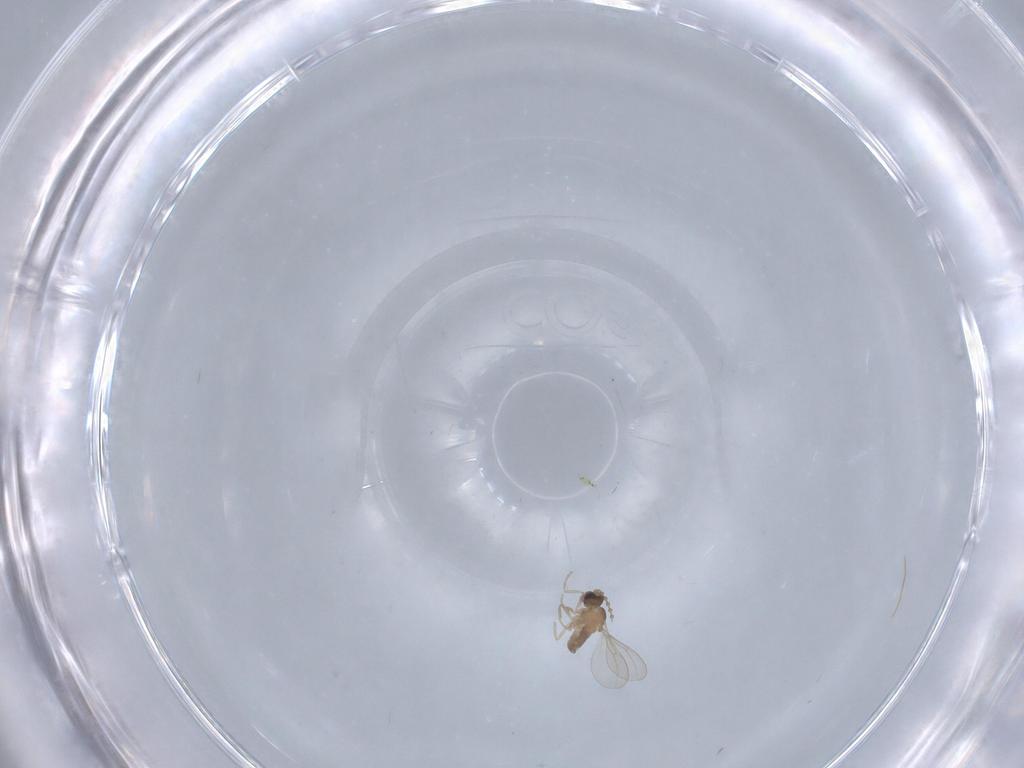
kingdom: Animalia
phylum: Arthropoda
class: Insecta
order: Diptera
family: Cecidomyiidae
